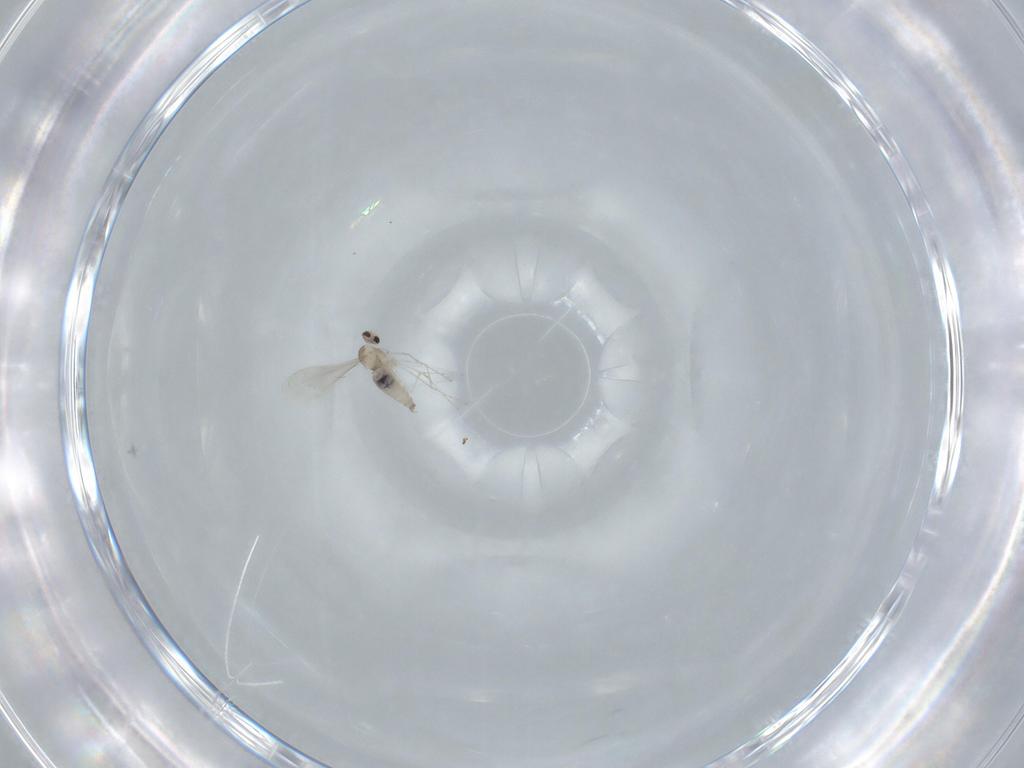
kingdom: Animalia
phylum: Arthropoda
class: Insecta
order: Diptera
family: Cecidomyiidae
